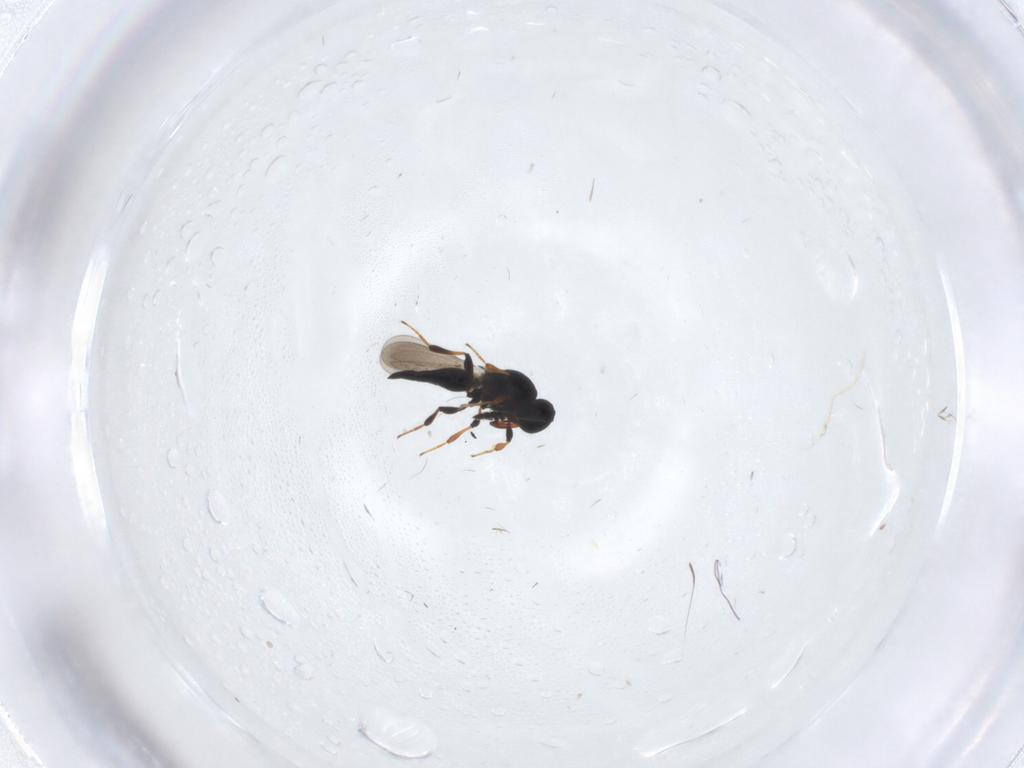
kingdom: Animalia
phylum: Arthropoda
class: Insecta
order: Hymenoptera
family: Platygastridae
